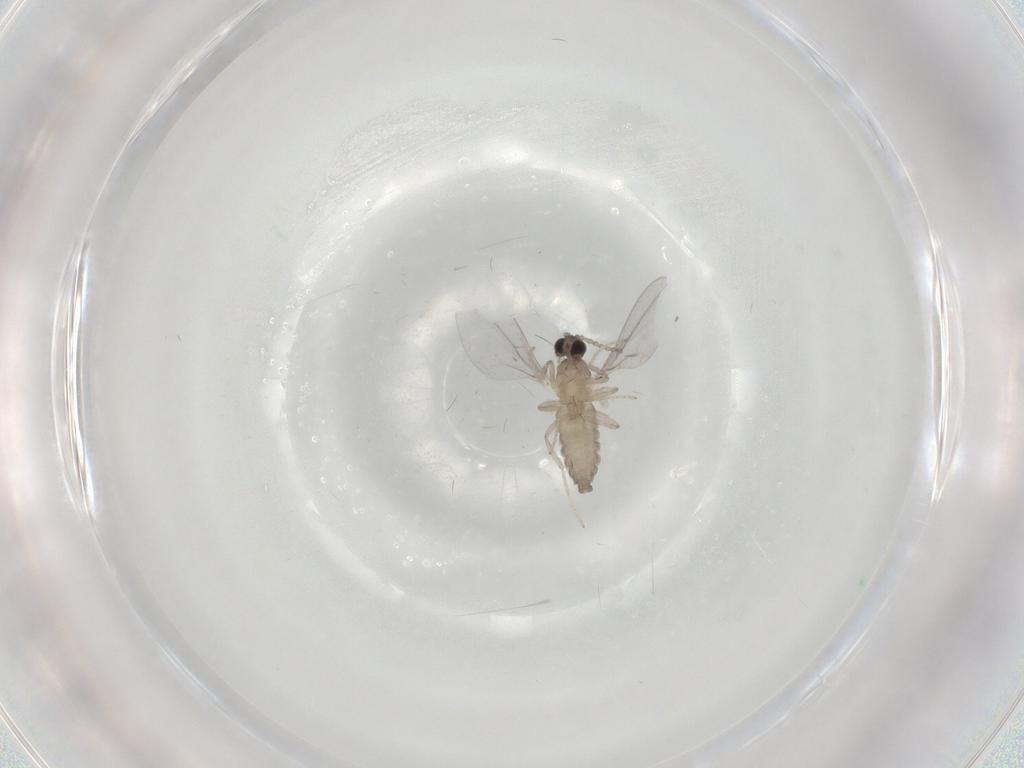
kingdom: Animalia
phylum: Arthropoda
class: Insecta
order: Diptera
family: Cecidomyiidae
